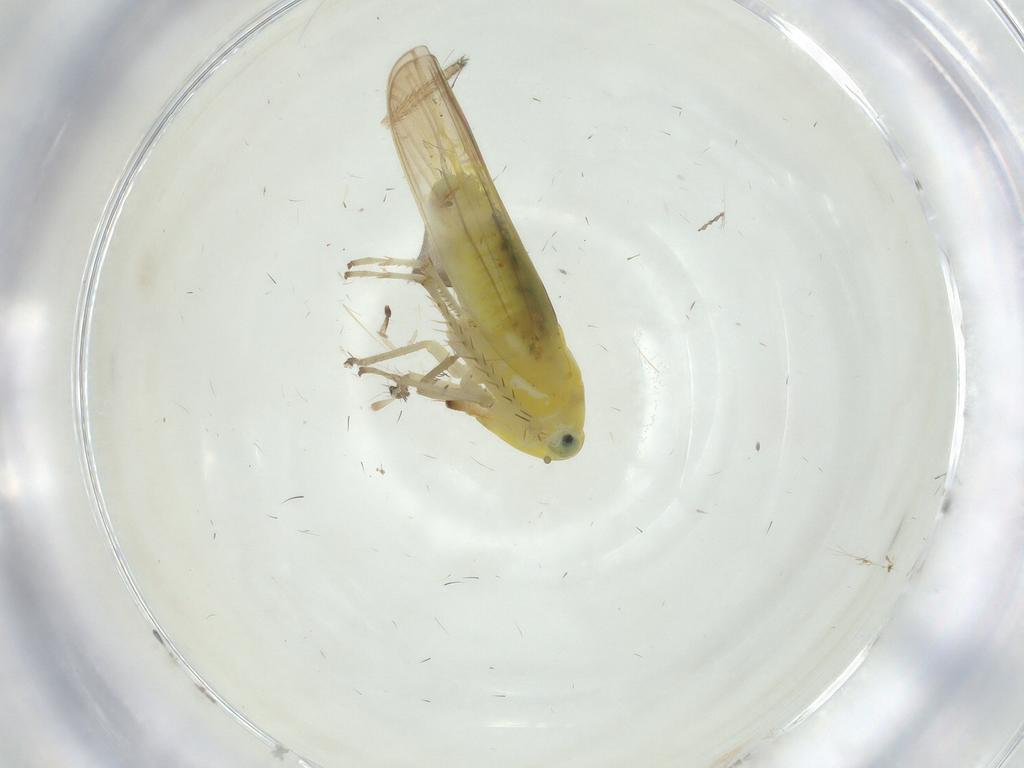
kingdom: Animalia
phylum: Arthropoda
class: Insecta
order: Hemiptera
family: Cicadellidae
